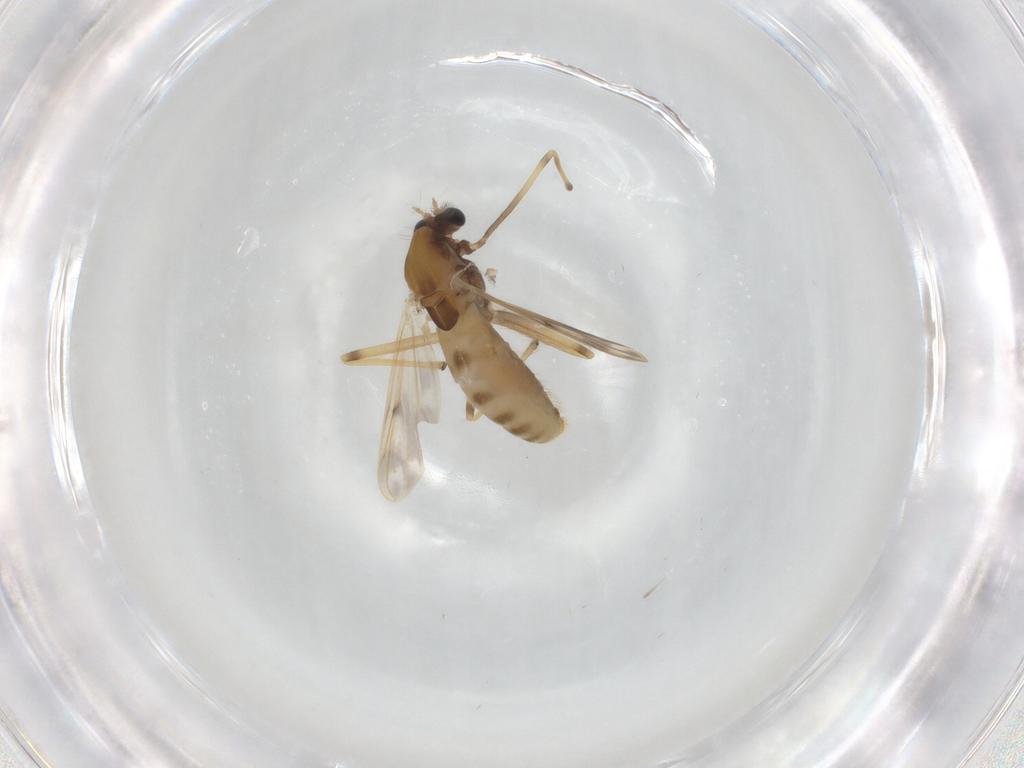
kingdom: Animalia
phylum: Arthropoda
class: Insecta
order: Diptera
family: Chironomidae
